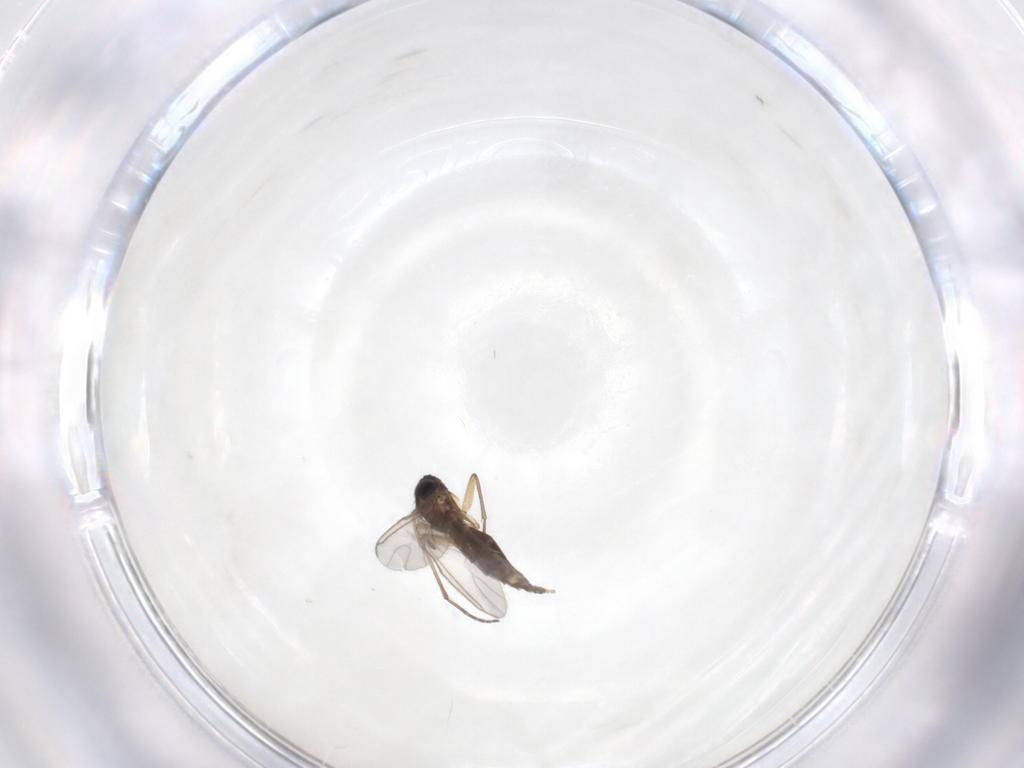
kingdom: Animalia
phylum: Arthropoda
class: Insecta
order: Diptera
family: Sciaridae
